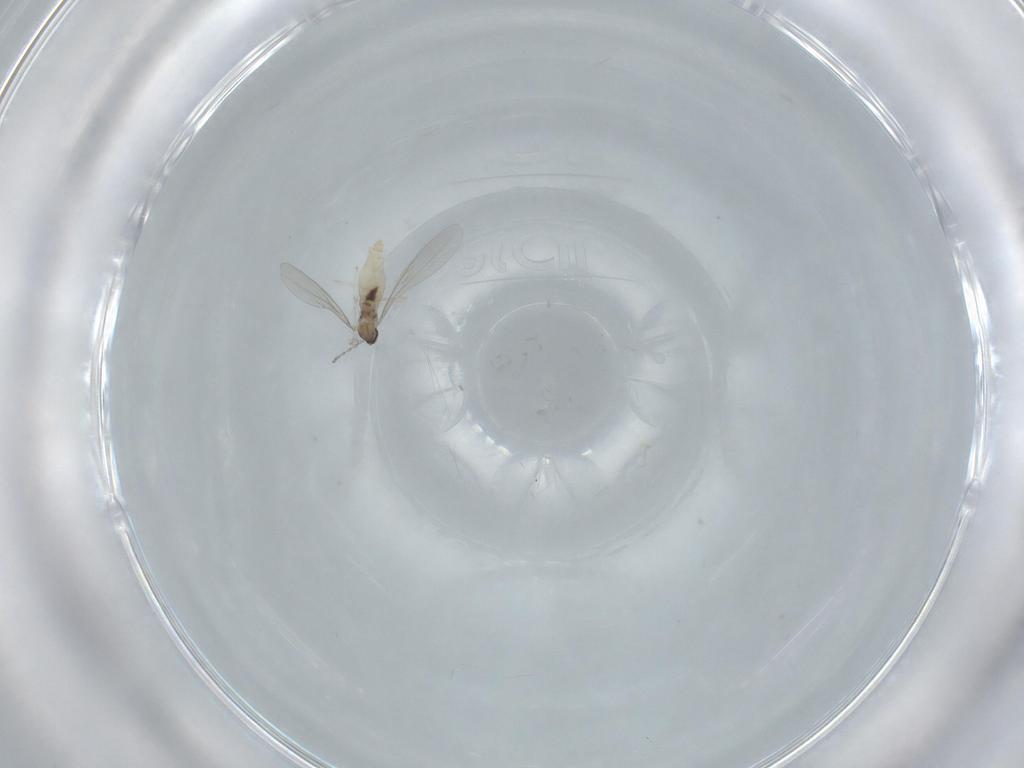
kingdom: Animalia
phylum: Arthropoda
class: Insecta
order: Diptera
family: Cecidomyiidae
